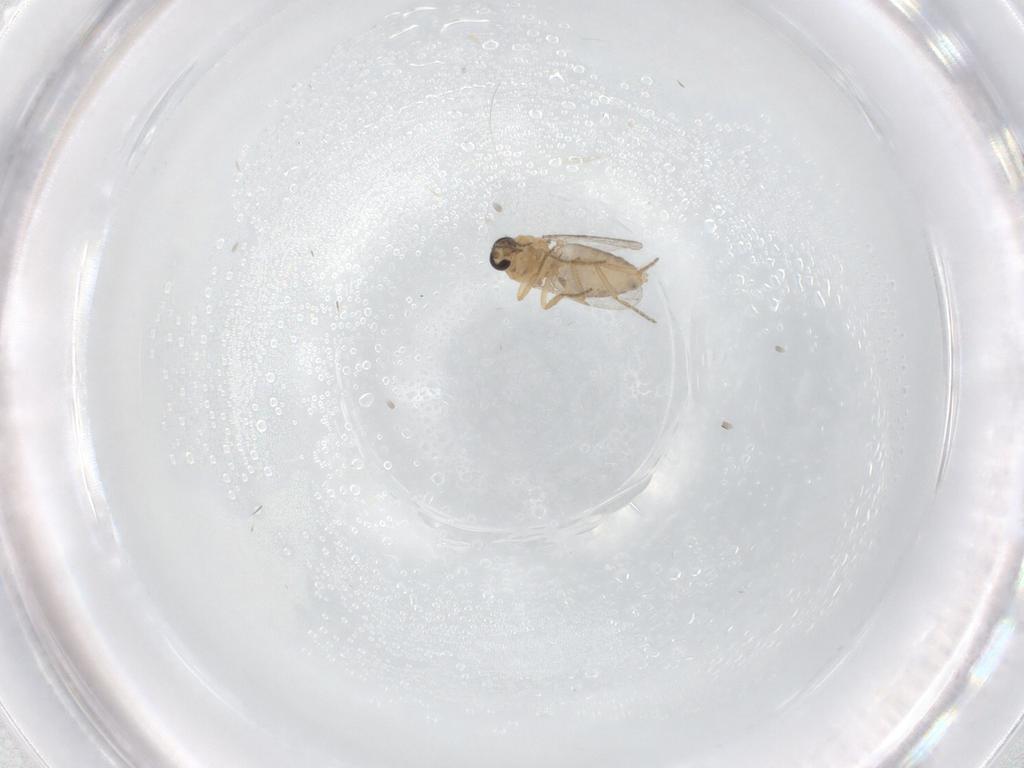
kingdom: Animalia
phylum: Arthropoda
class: Insecta
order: Diptera
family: Ceratopogonidae
